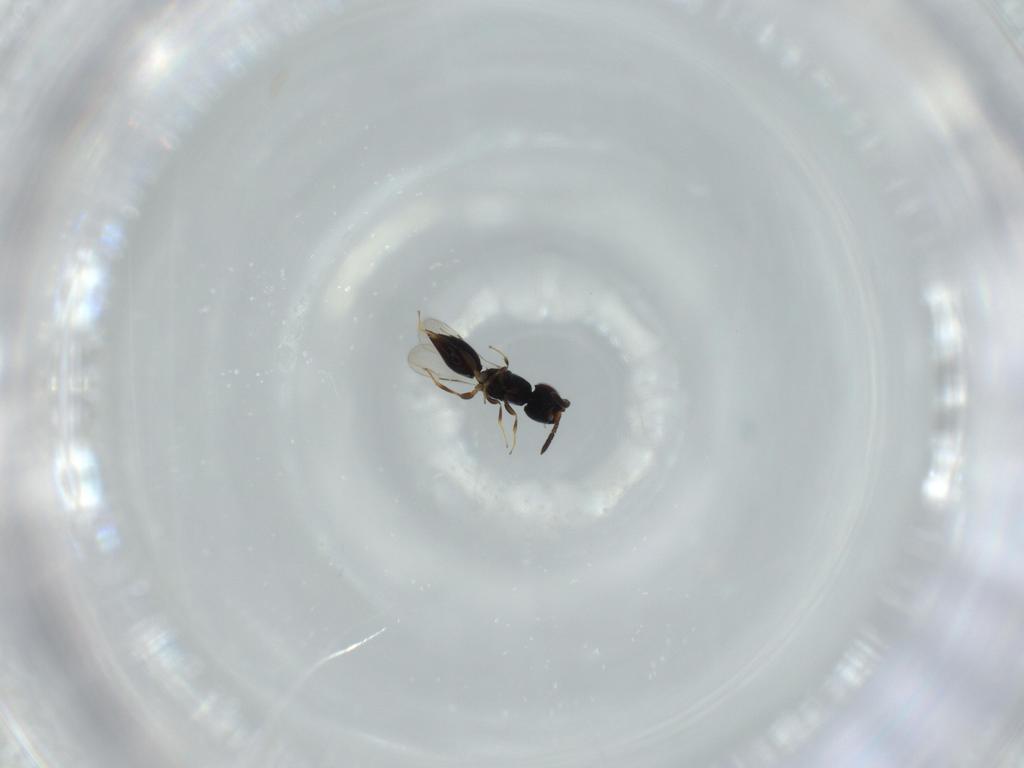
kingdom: Animalia
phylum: Arthropoda
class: Insecta
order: Hymenoptera
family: Ceraphronidae
